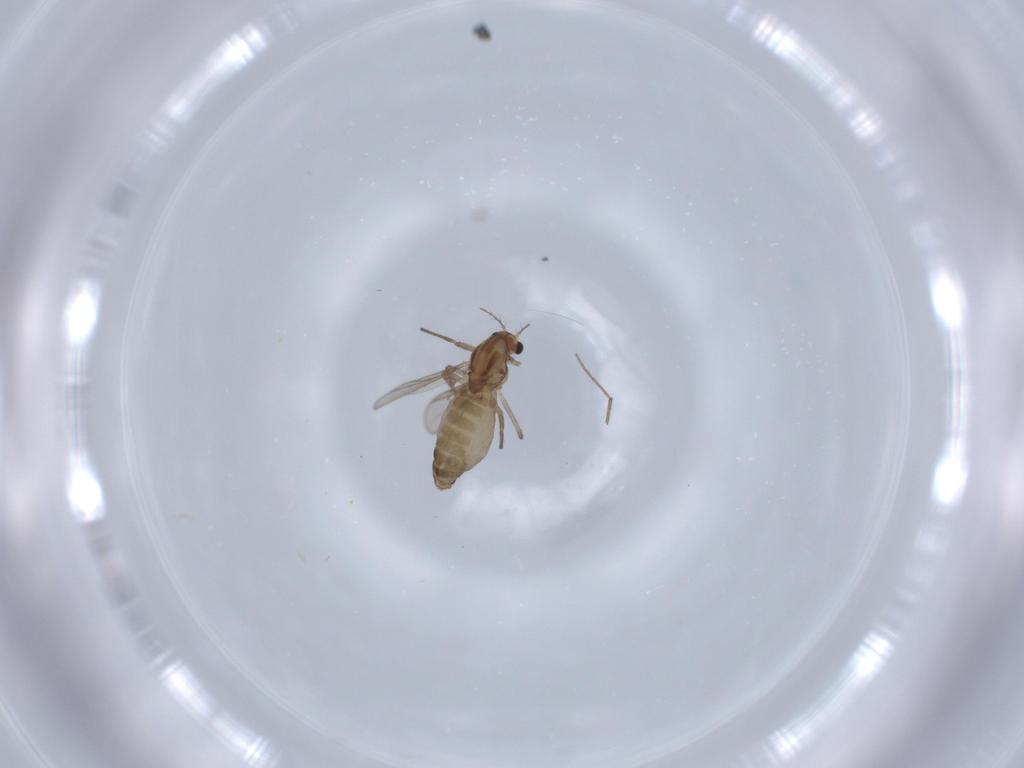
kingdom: Animalia
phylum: Arthropoda
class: Insecta
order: Diptera
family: Chironomidae
